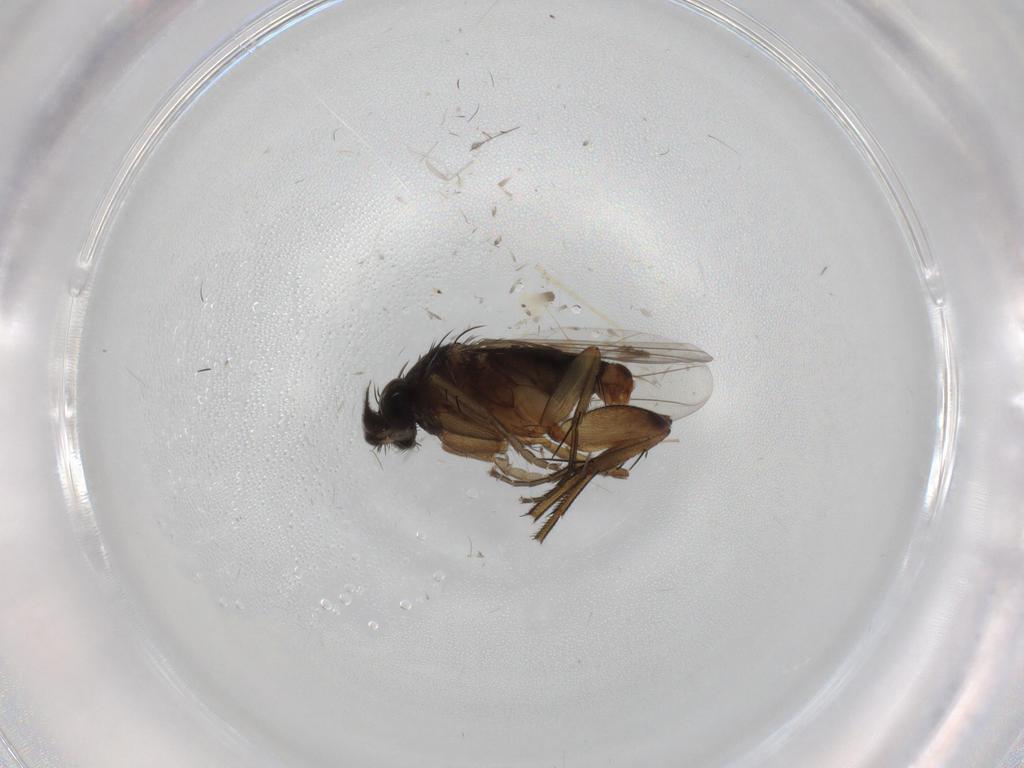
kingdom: Animalia
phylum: Arthropoda
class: Insecta
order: Diptera
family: Phoridae
